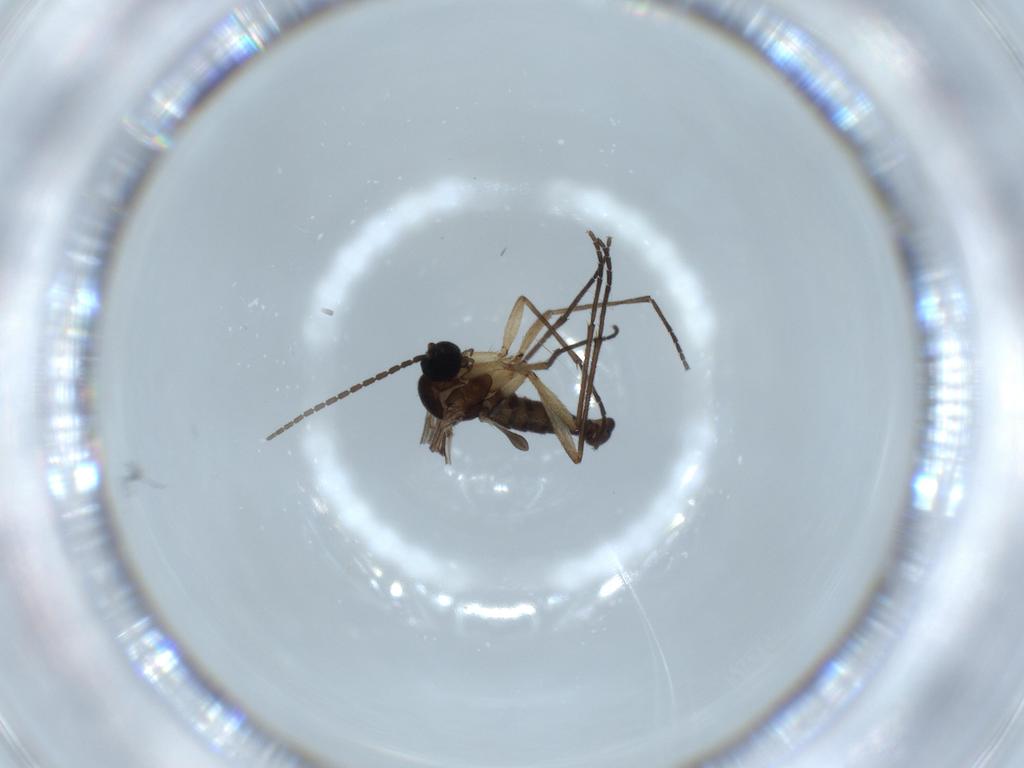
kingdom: Animalia
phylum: Arthropoda
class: Insecta
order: Diptera
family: Sciaridae
